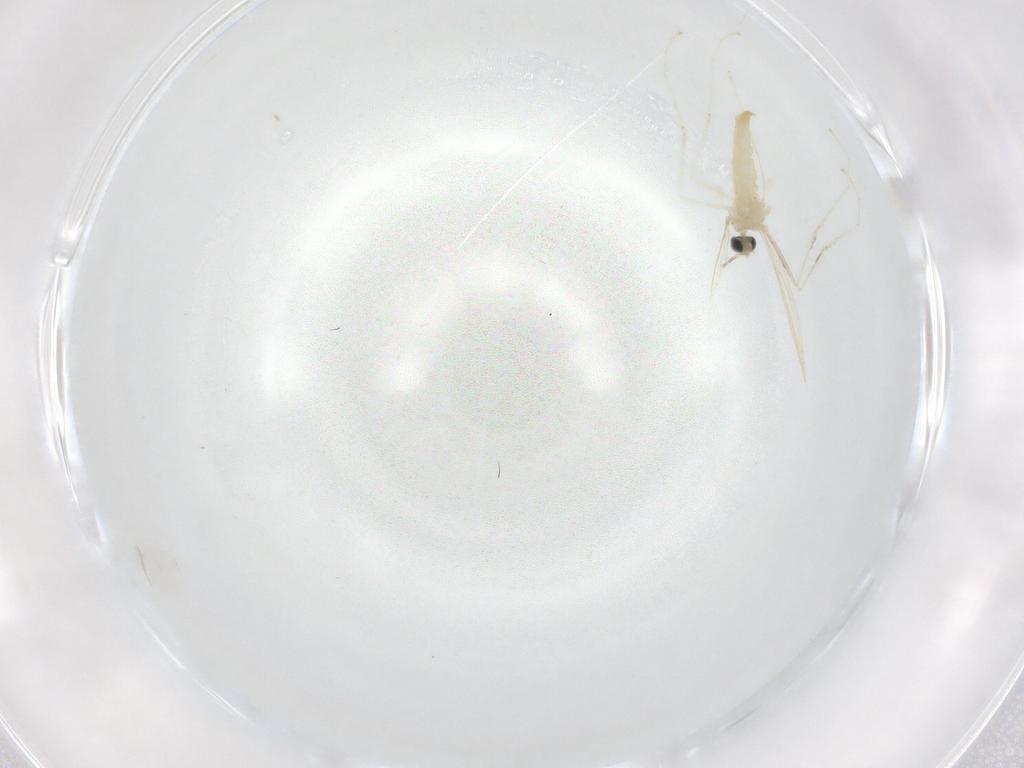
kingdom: Animalia
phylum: Arthropoda
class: Insecta
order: Diptera
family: Cecidomyiidae
